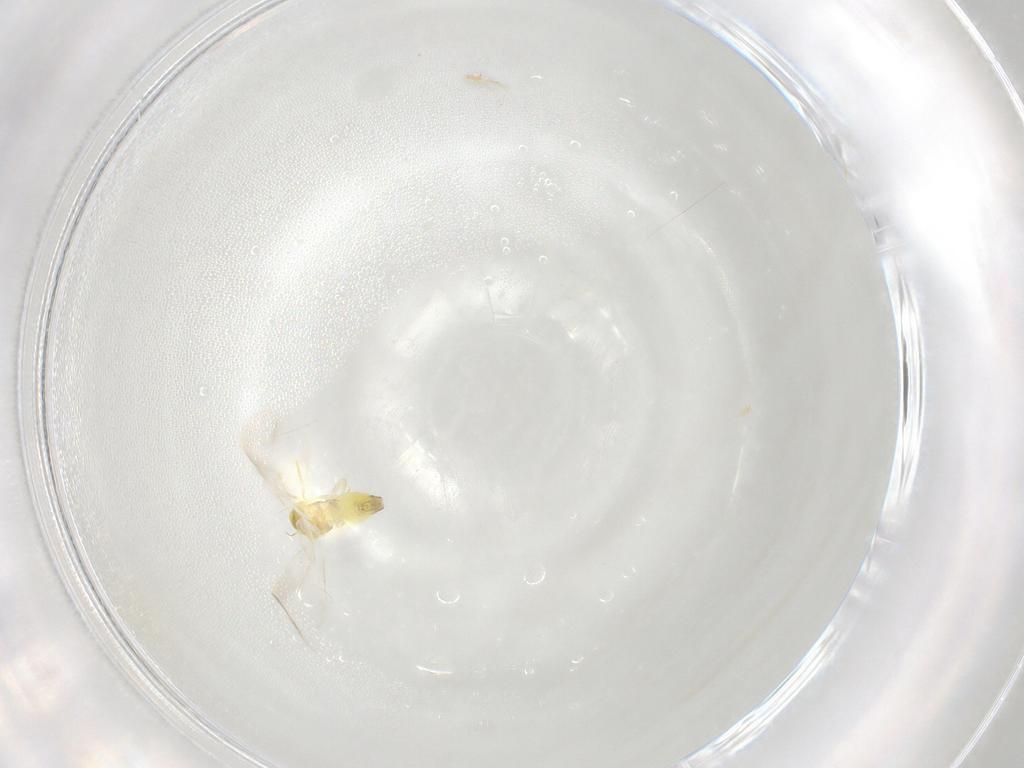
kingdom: Animalia
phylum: Arthropoda
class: Insecta
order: Hemiptera
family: Aleyrodidae
